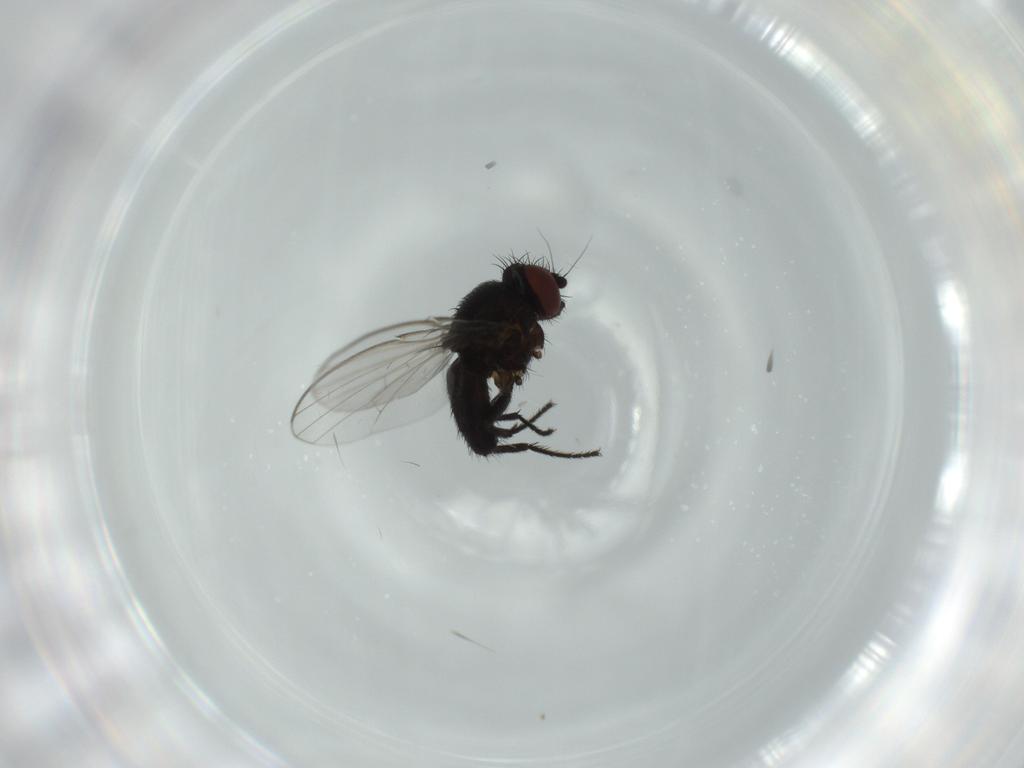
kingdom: Animalia
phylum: Arthropoda
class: Insecta
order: Diptera
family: Milichiidae
